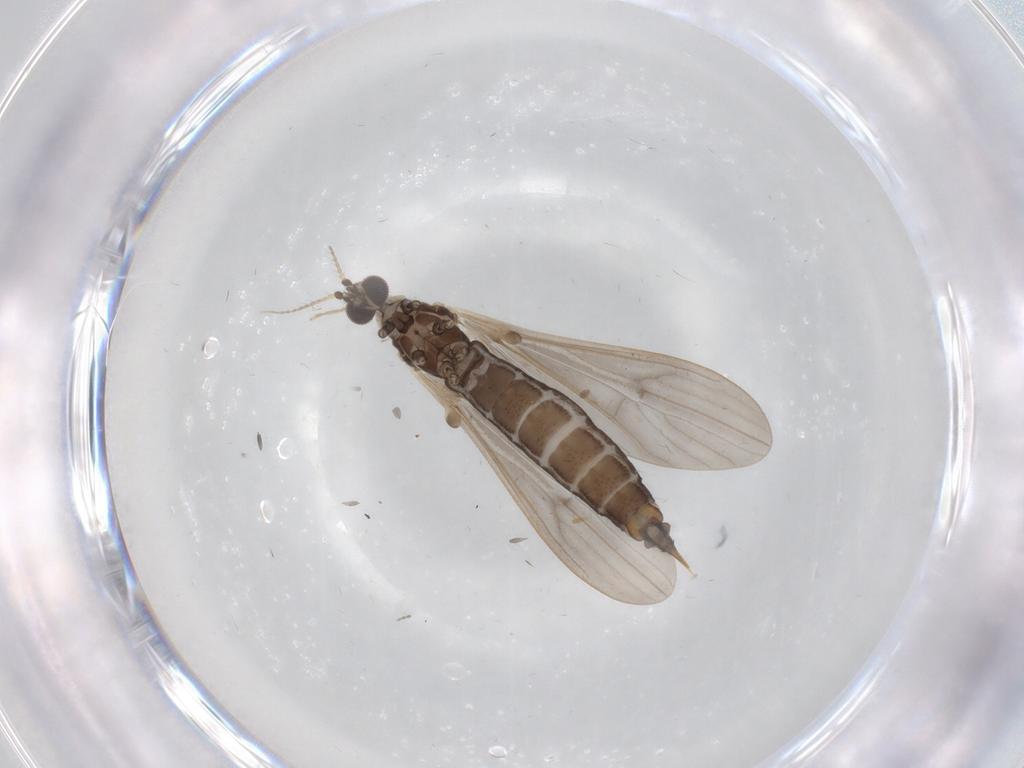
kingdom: Animalia
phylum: Arthropoda
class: Insecta
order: Diptera
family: Limoniidae
